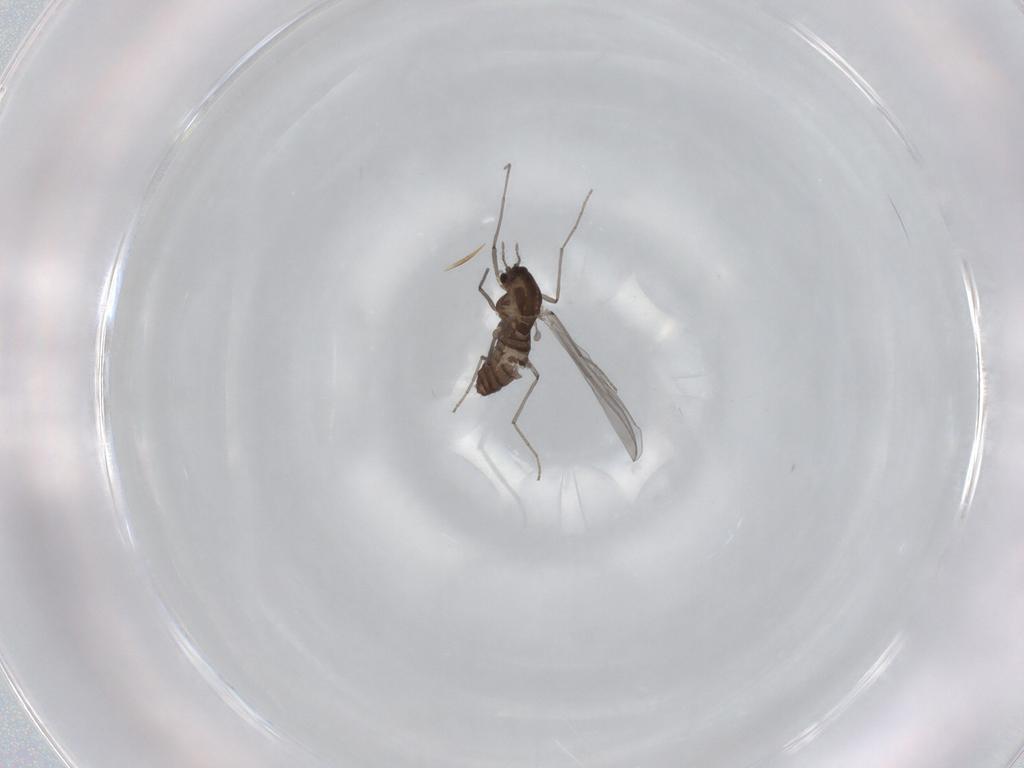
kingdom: Animalia
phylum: Arthropoda
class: Insecta
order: Diptera
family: Chironomidae
